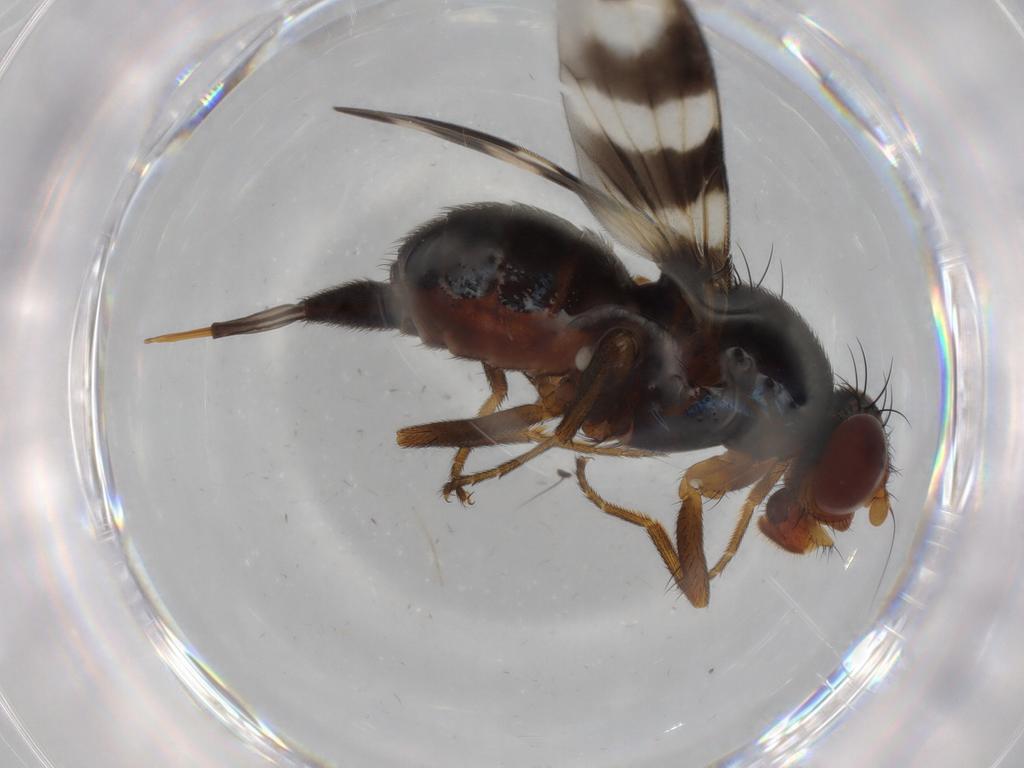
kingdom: Animalia
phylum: Arthropoda
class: Insecta
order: Diptera
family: Ulidiidae
